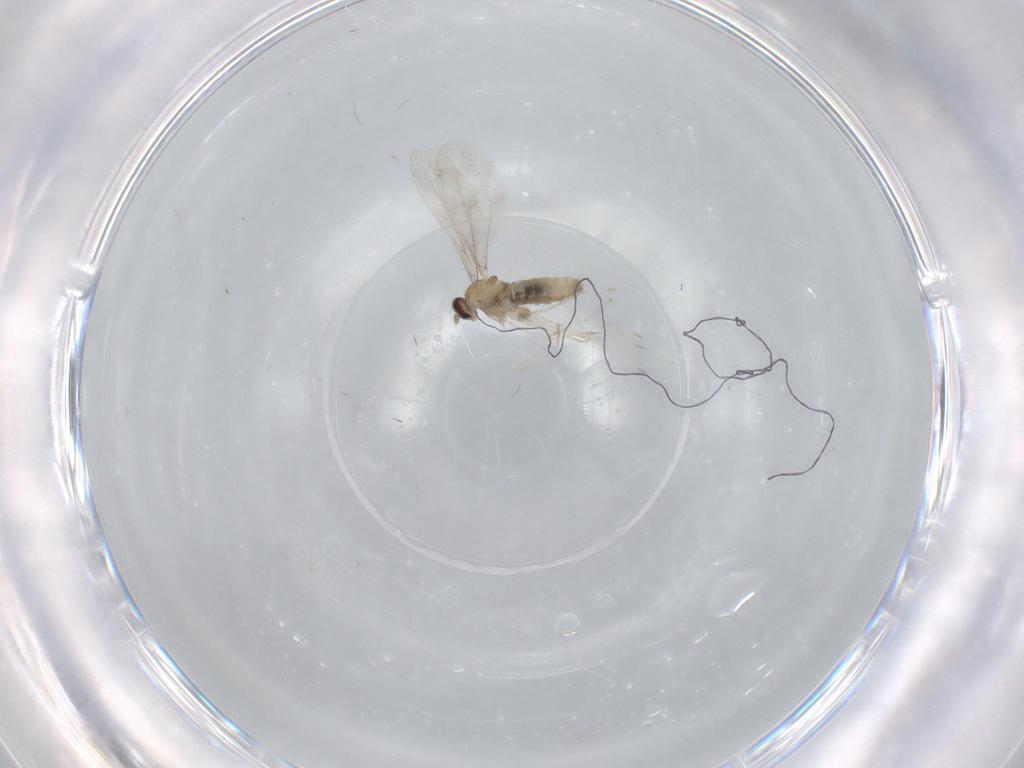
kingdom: Animalia
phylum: Arthropoda
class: Insecta
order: Diptera
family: Cecidomyiidae
